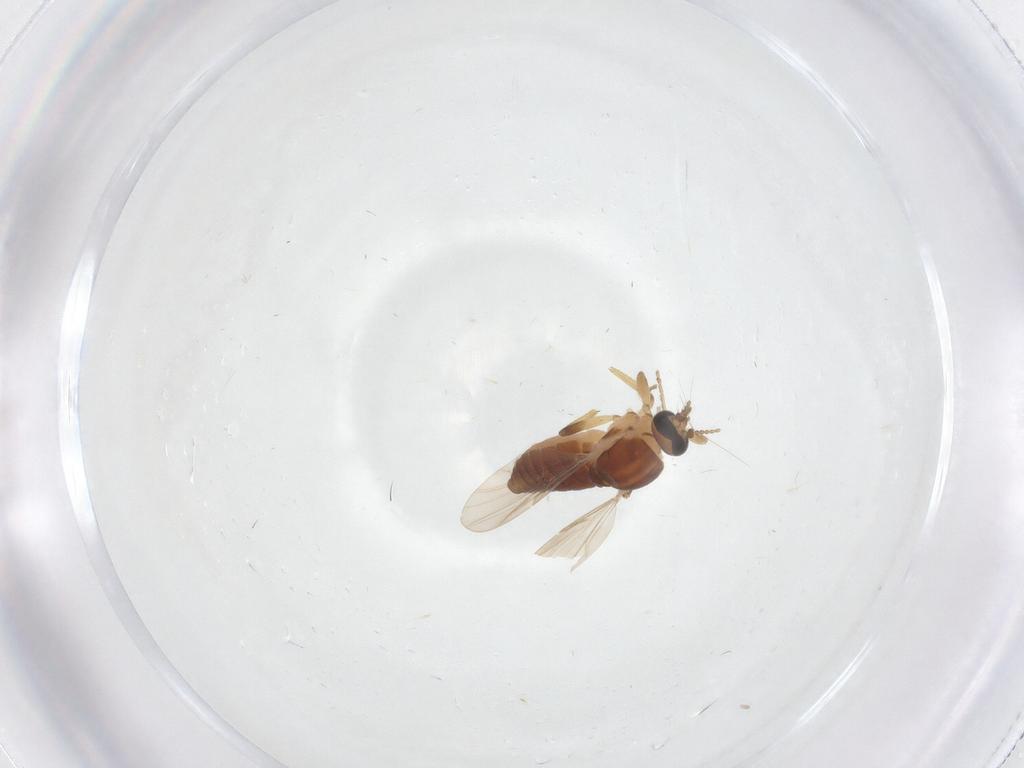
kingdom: Animalia
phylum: Arthropoda
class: Insecta
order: Diptera
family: Ceratopogonidae
